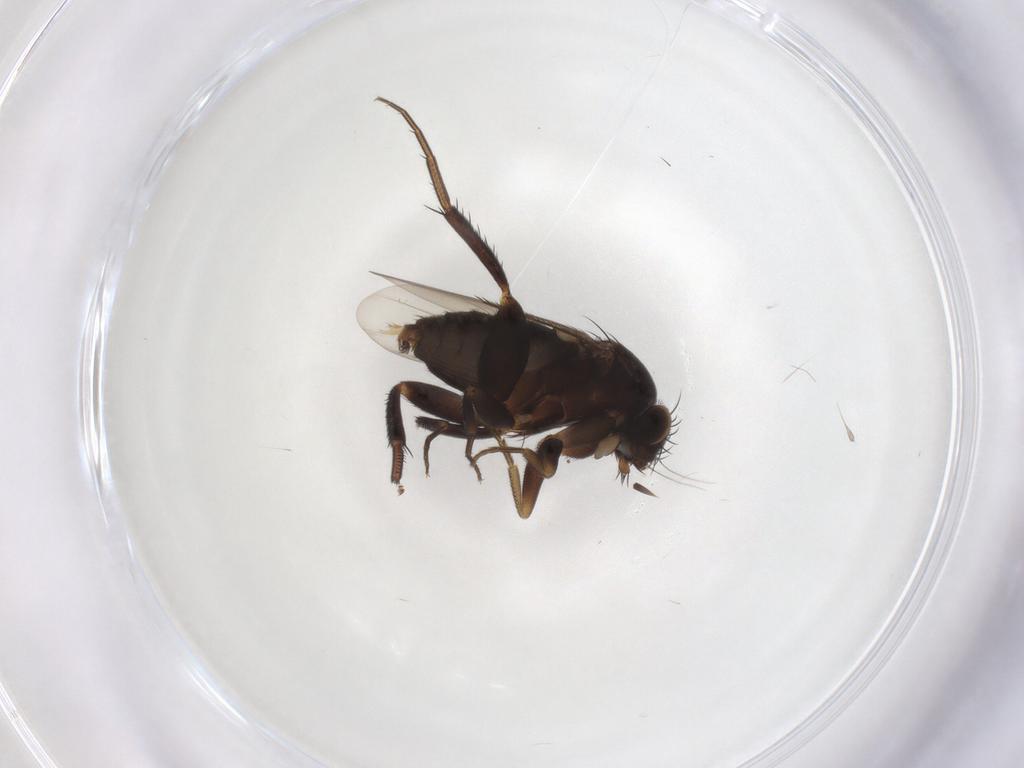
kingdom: Animalia
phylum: Arthropoda
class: Insecta
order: Diptera
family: Phoridae
